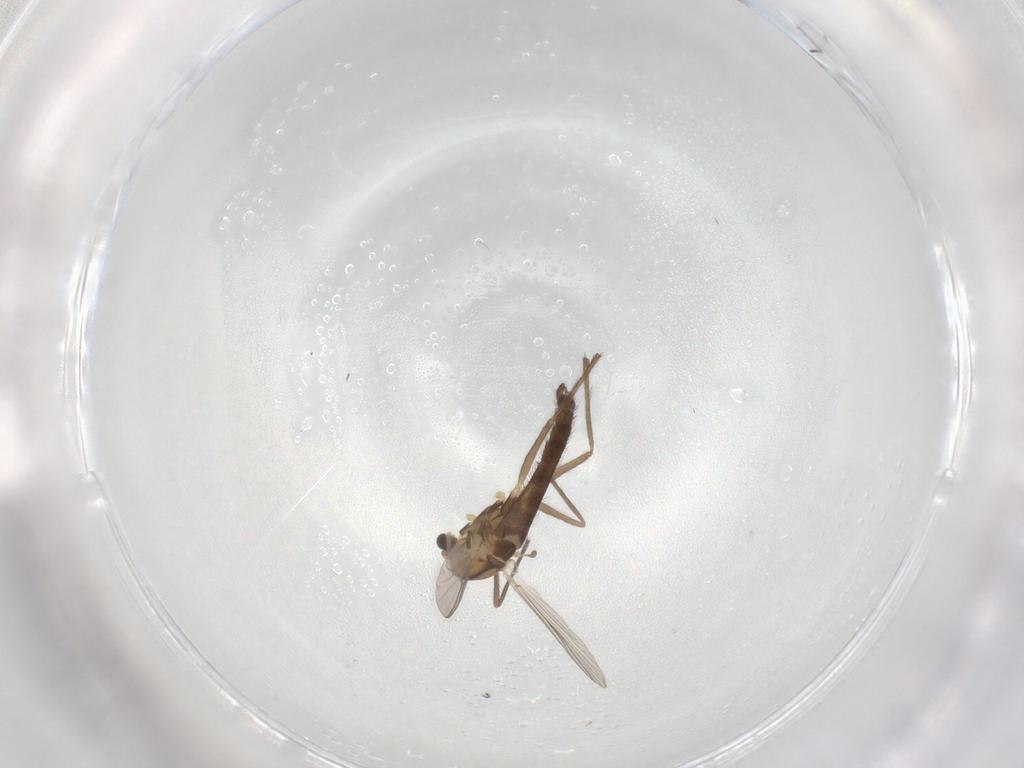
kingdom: Animalia
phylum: Arthropoda
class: Insecta
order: Diptera
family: Chironomidae
